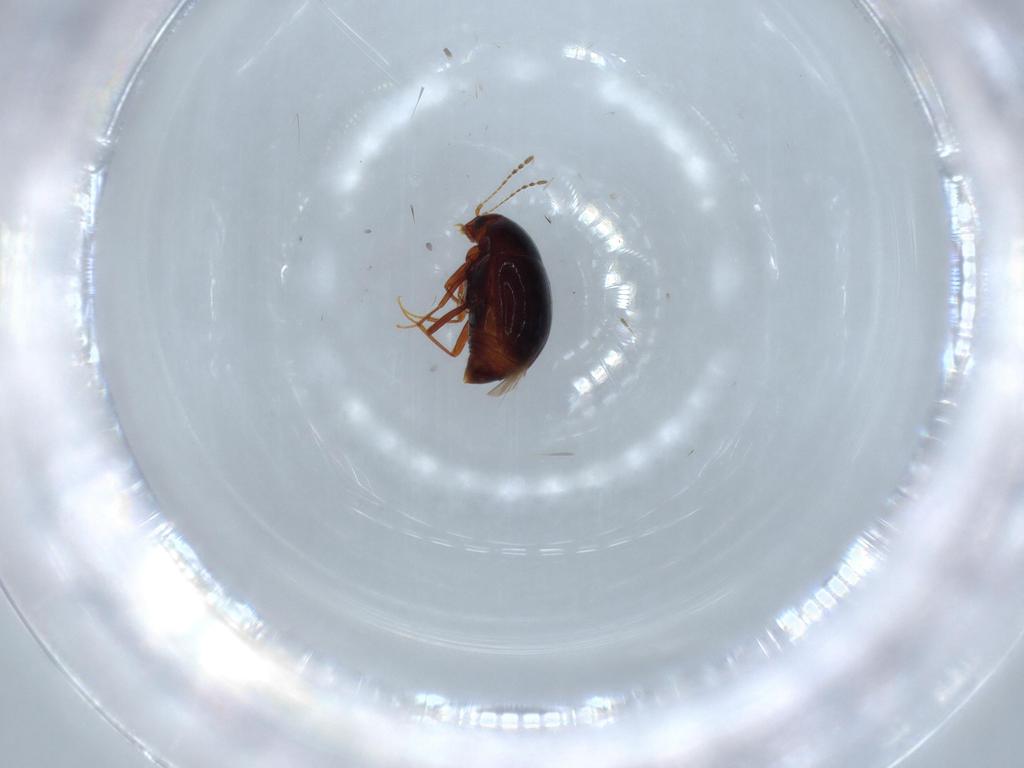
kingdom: Animalia
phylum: Arthropoda
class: Insecta
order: Coleoptera
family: Staphylinidae
